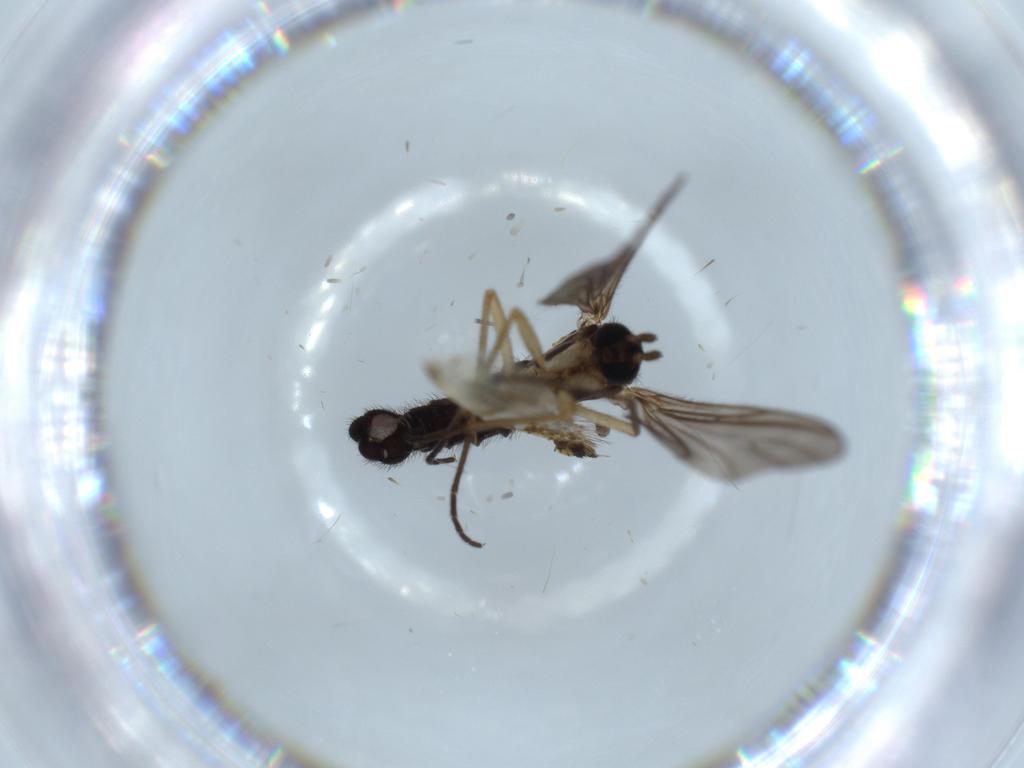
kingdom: Animalia
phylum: Arthropoda
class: Insecta
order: Diptera
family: Sciaridae
